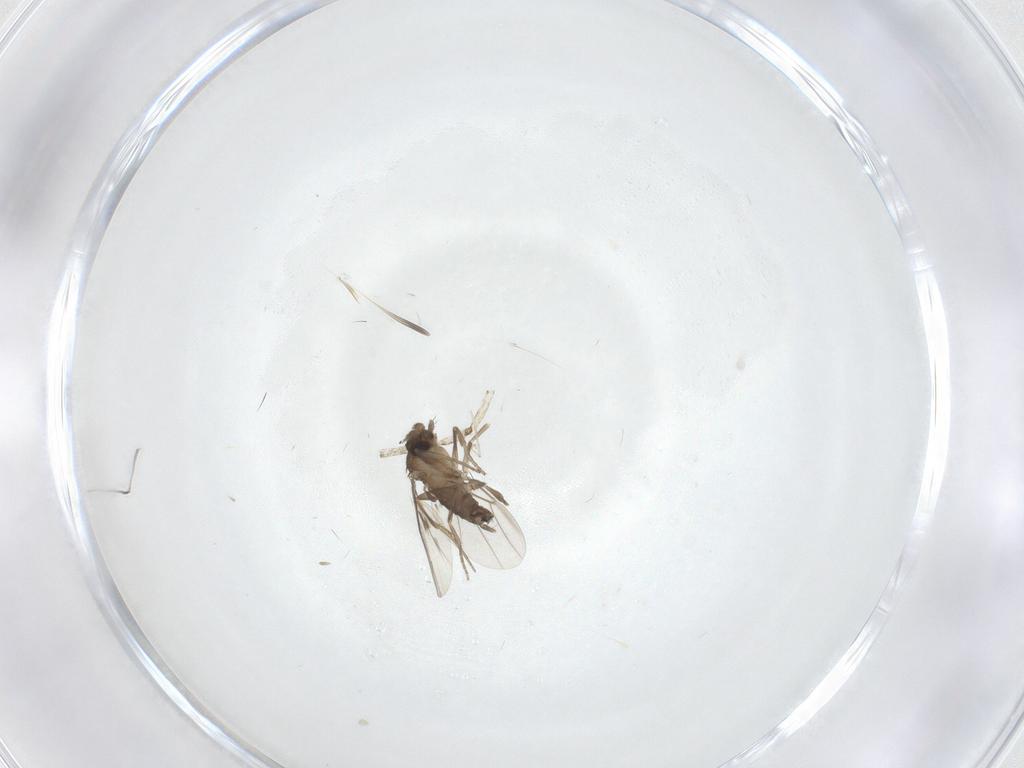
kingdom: Animalia
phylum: Arthropoda
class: Insecta
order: Diptera
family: Phoridae
